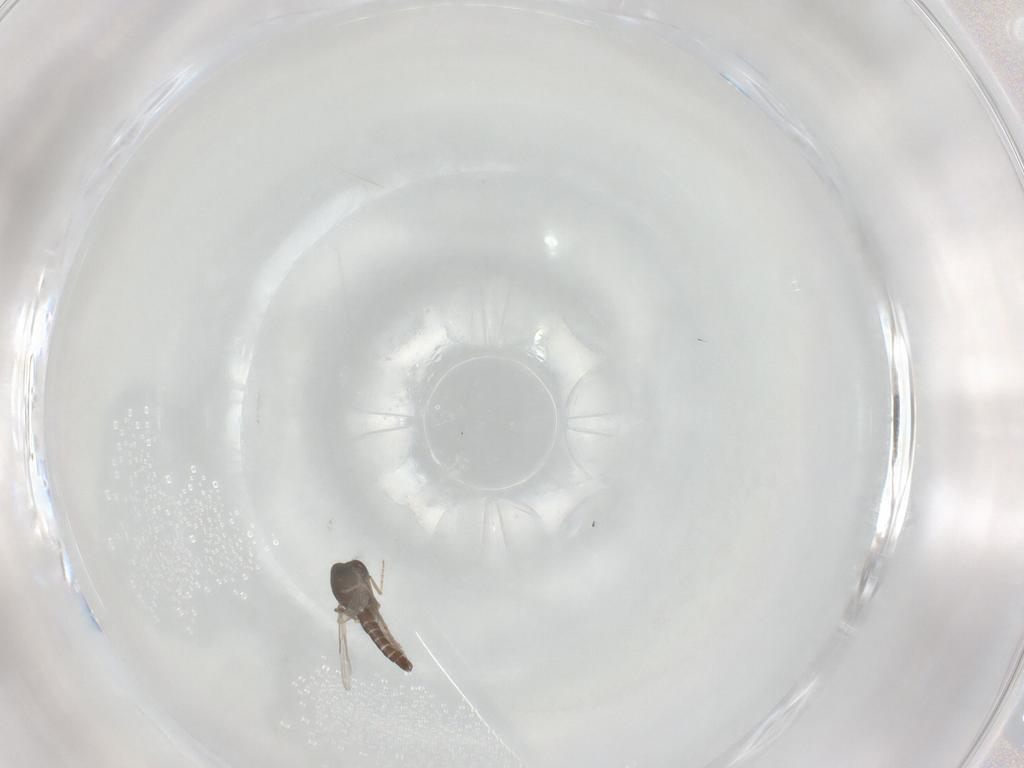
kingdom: Animalia
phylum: Arthropoda
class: Insecta
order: Diptera
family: Ceratopogonidae
